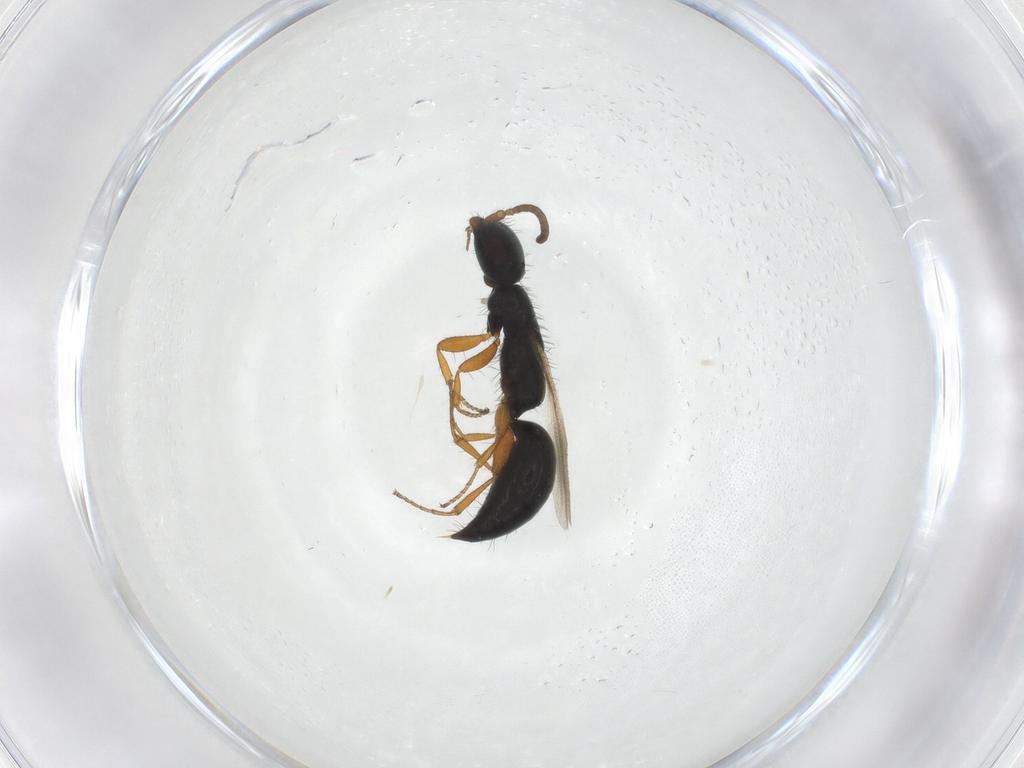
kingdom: Animalia
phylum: Arthropoda
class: Insecta
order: Hymenoptera
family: Bethylidae
